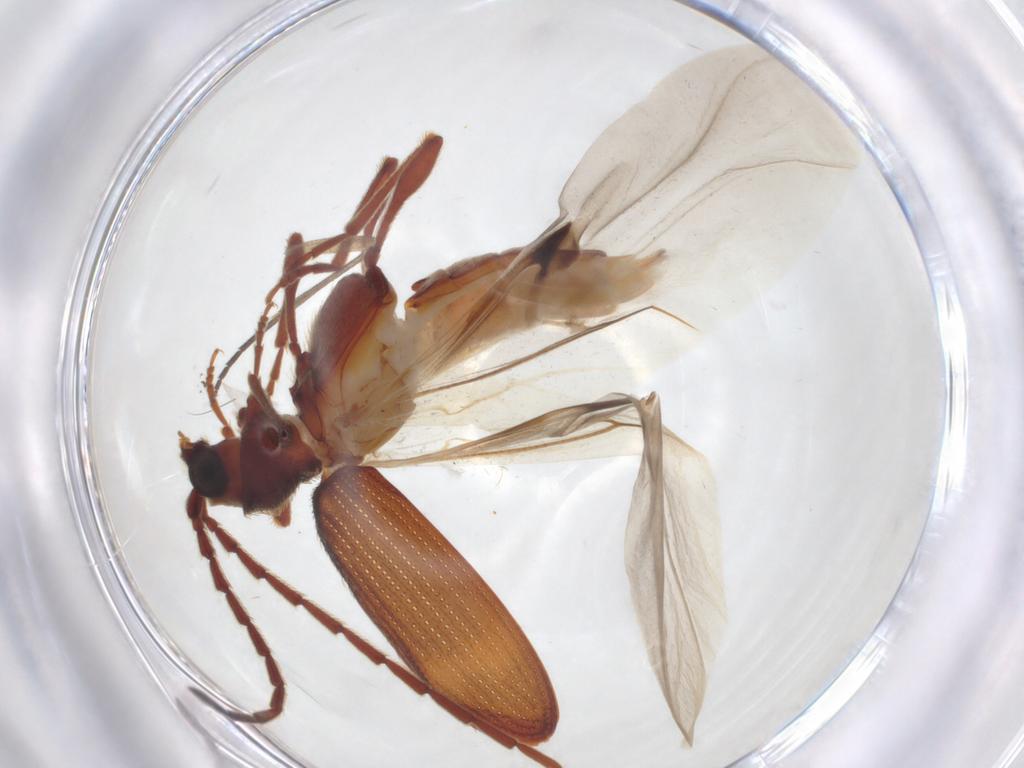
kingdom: Animalia
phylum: Arthropoda
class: Insecta
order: Coleoptera
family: Ptinidae
